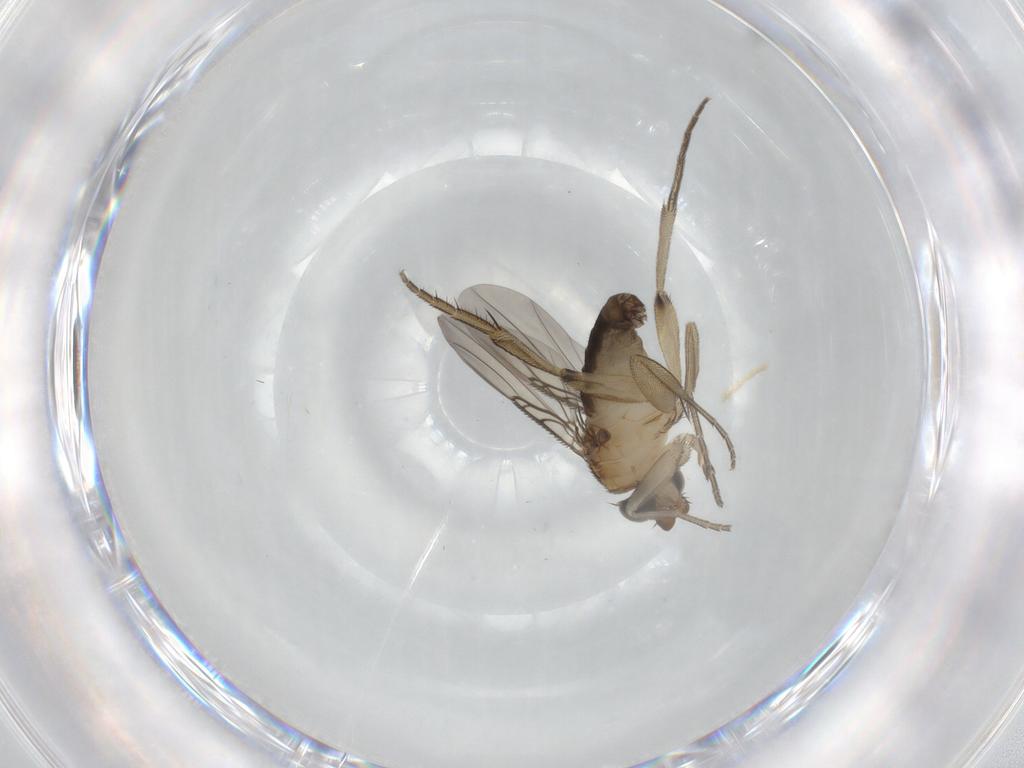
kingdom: Animalia
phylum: Arthropoda
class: Insecta
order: Diptera
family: Phoridae
